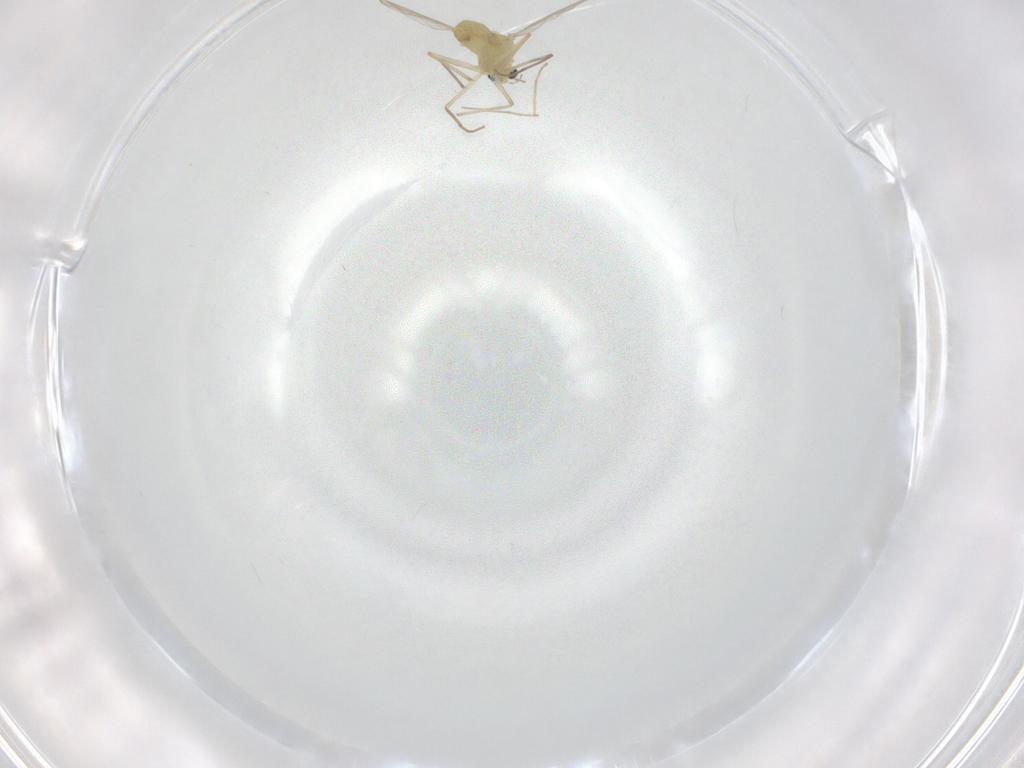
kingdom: Animalia
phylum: Arthropoda
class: Insecta
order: Diptera
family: Chironomidae
